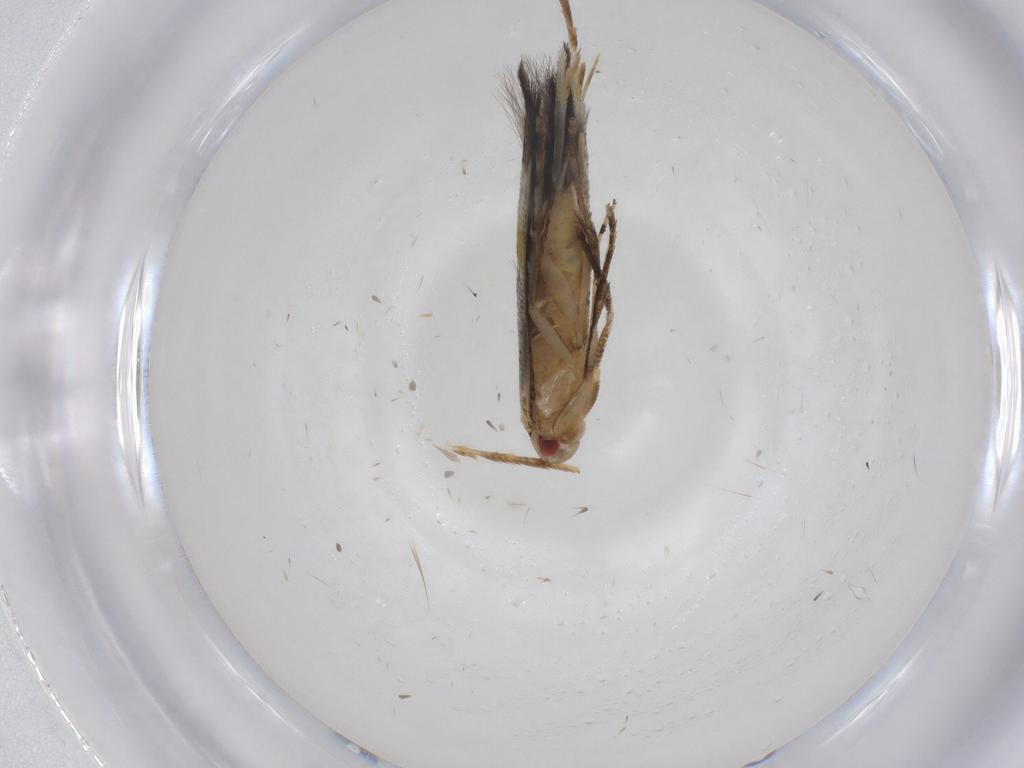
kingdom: Animalia
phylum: Arthropoda
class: Insecta
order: Lepidoptera
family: Cosmopterigidae
